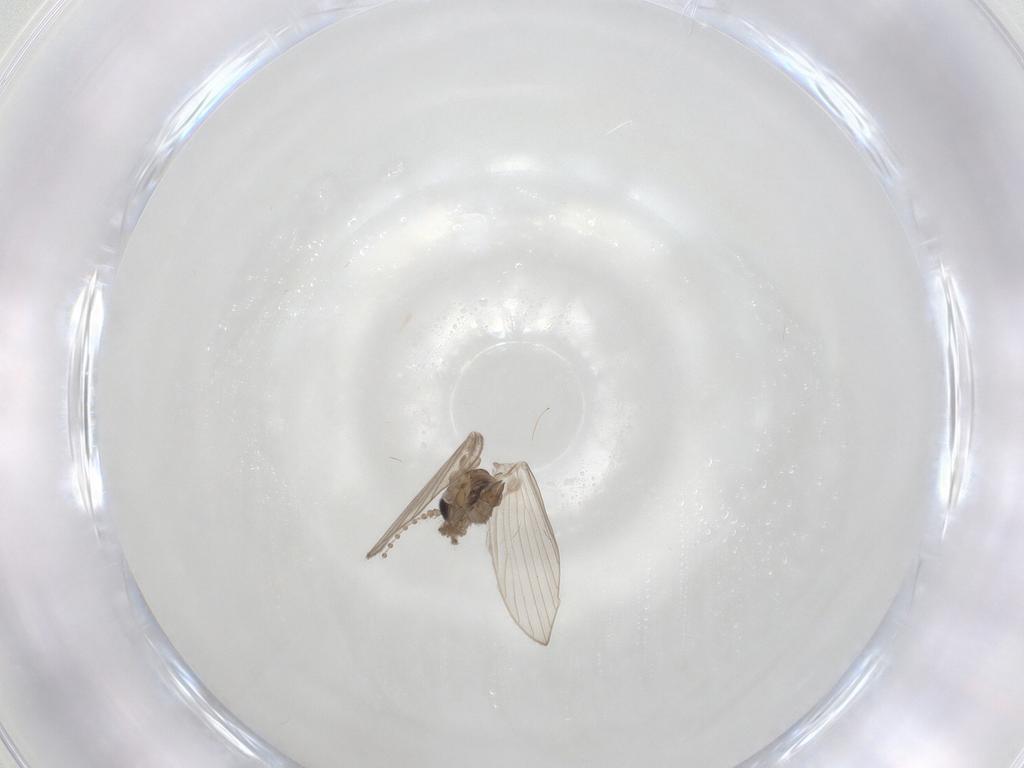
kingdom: Animalia
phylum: Arthropoda
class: Insecta
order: Diptera
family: Psychodidae
